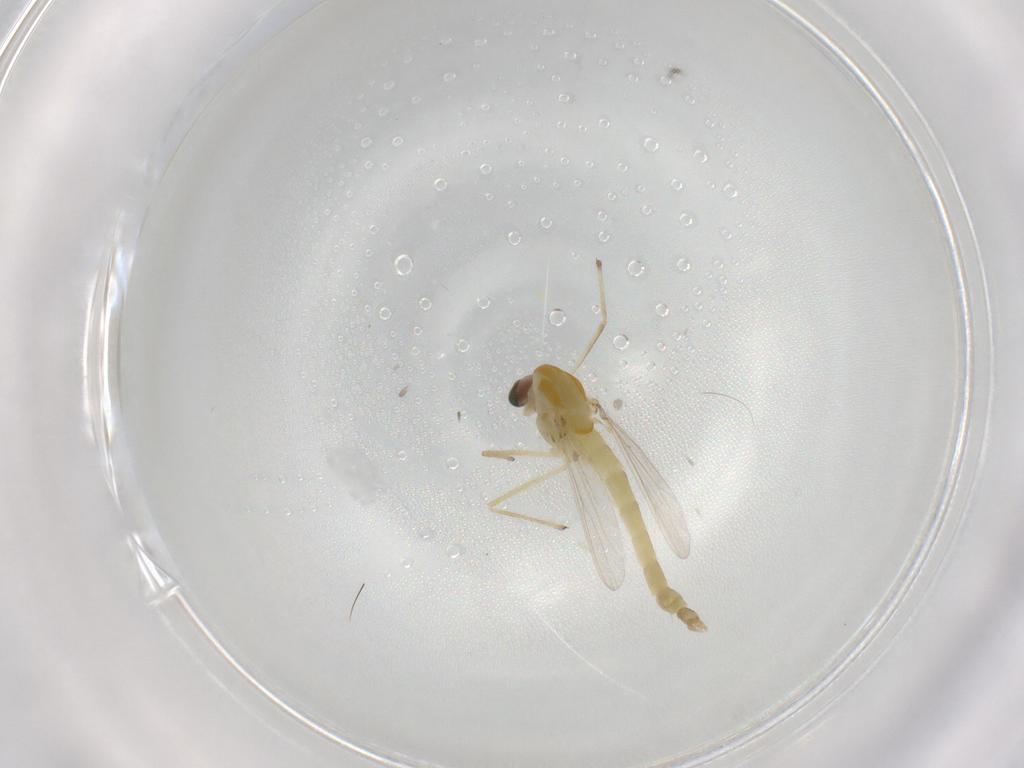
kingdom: Animalia
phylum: Arthropoda
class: Insecta
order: Diptera
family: Chironomidae
